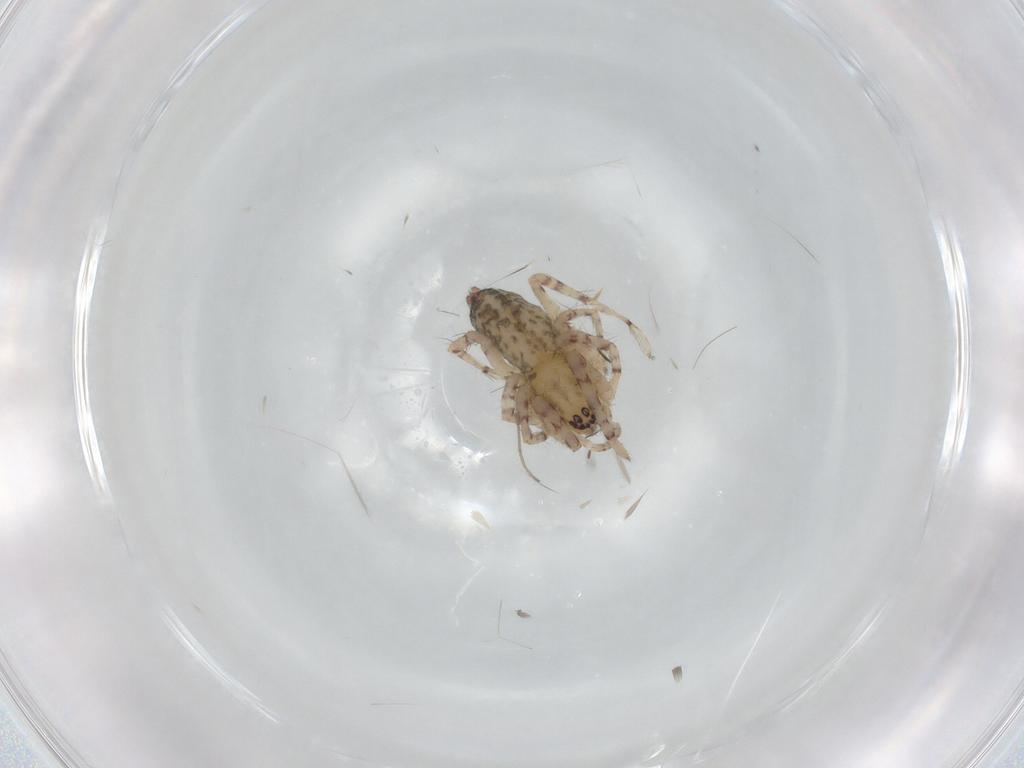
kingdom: Animalia
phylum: Arthropoda
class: Arachnida
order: Araneae
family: Anyphaenidae
